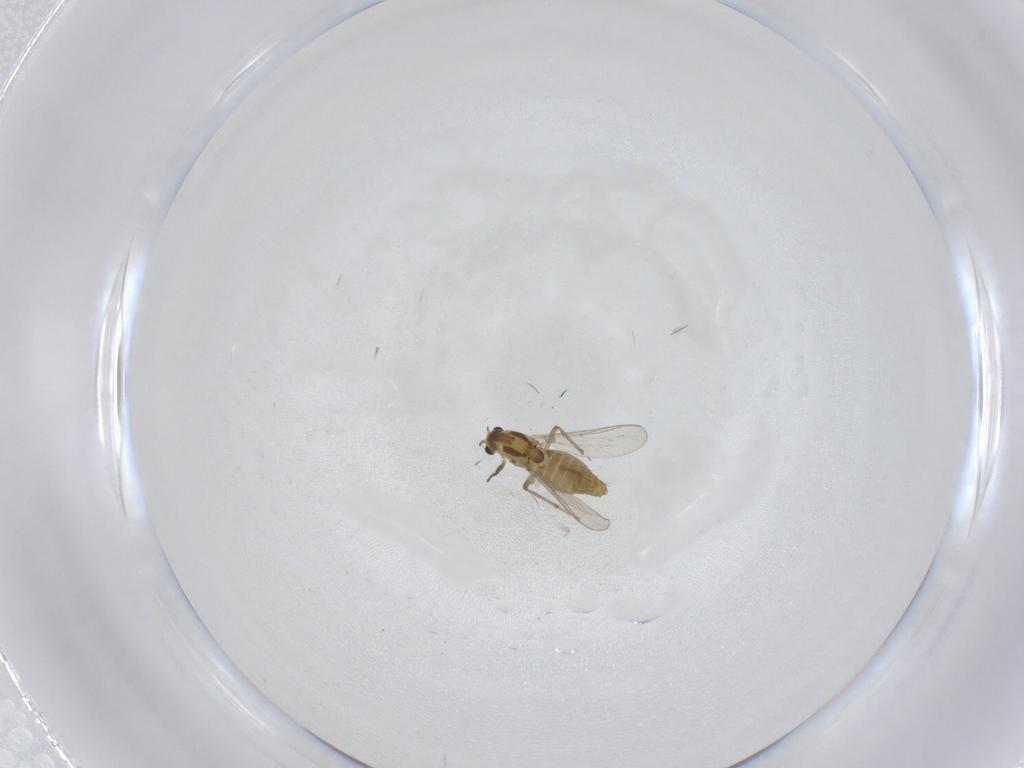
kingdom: Animalia
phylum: Arthropoda
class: Insecta
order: Diptera
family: Chironomidae
